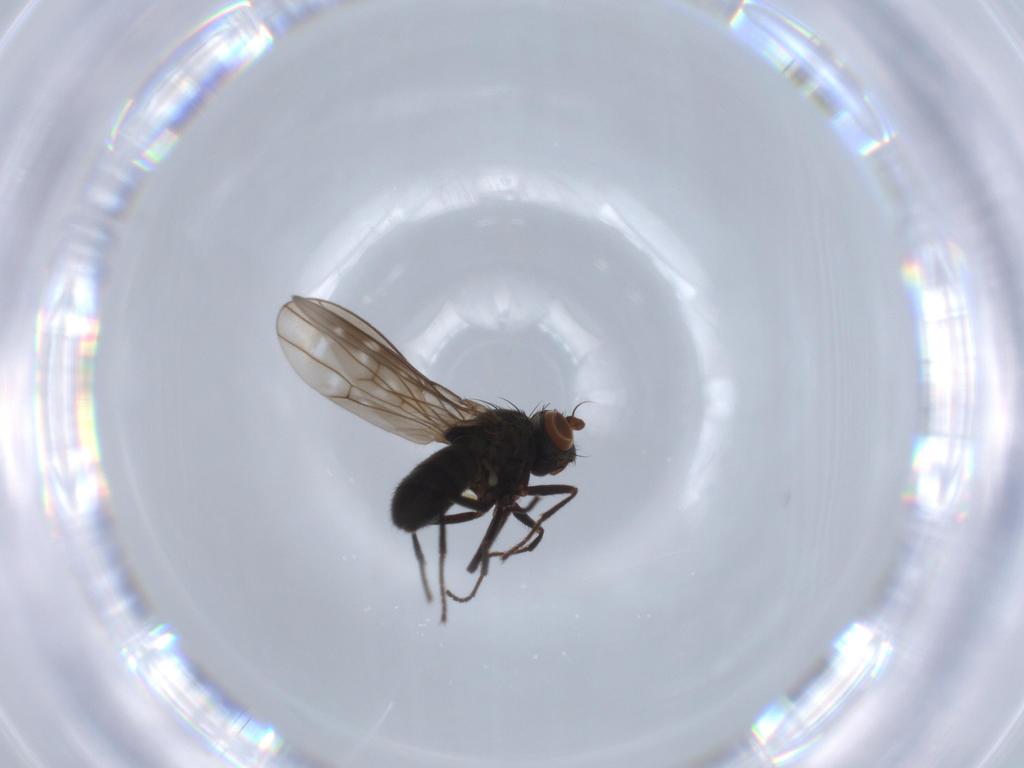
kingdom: Animalia
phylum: Arthropoda
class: Insecta
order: Diptera
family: Ephydridae
